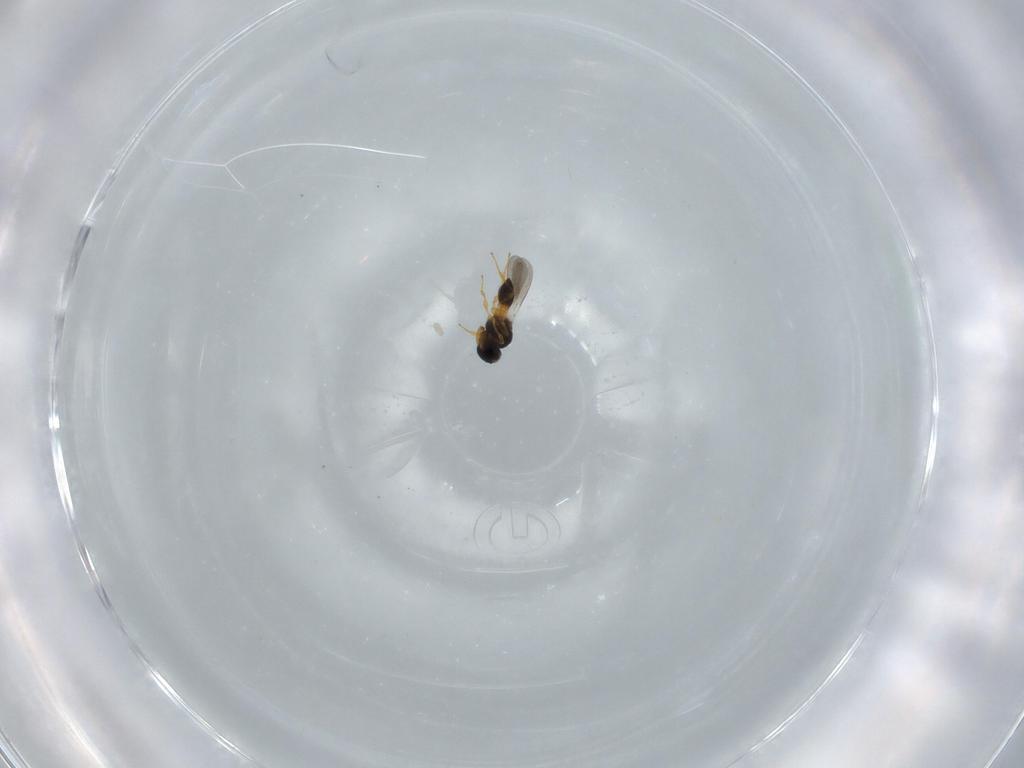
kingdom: Animalia
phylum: Arthropoda
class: Insecta
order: Hymenoptera
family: Platygastridae
